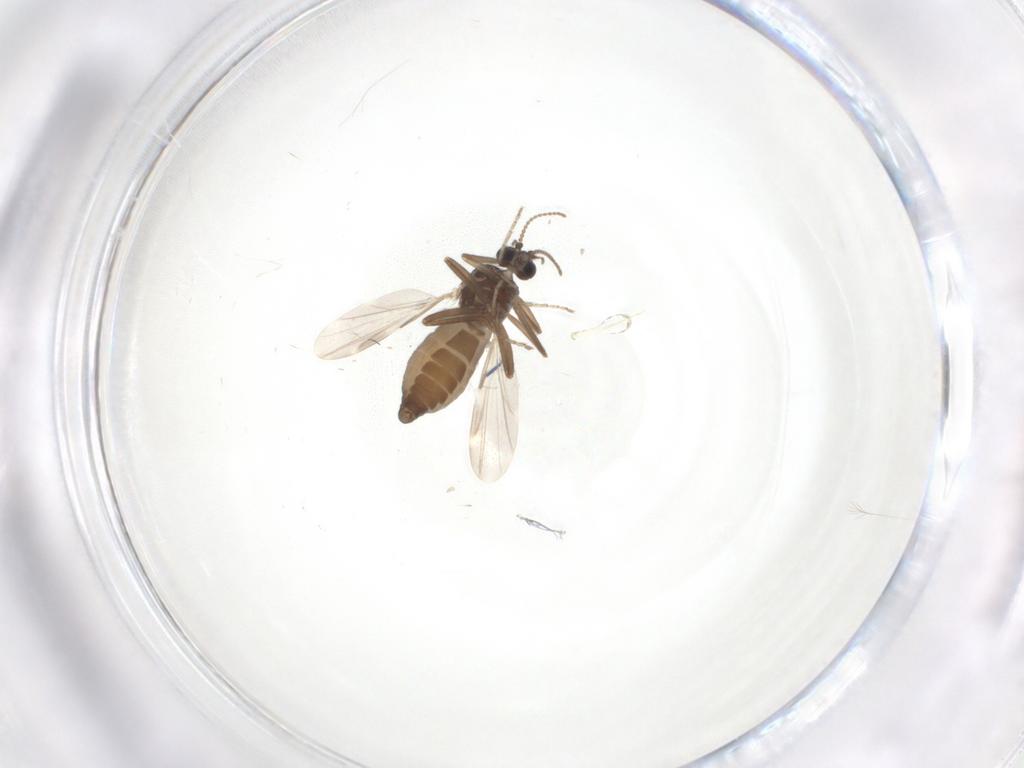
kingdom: Animalia
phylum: Arthropoda
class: Insecta
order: Diptera
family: Ceratopogonidae
